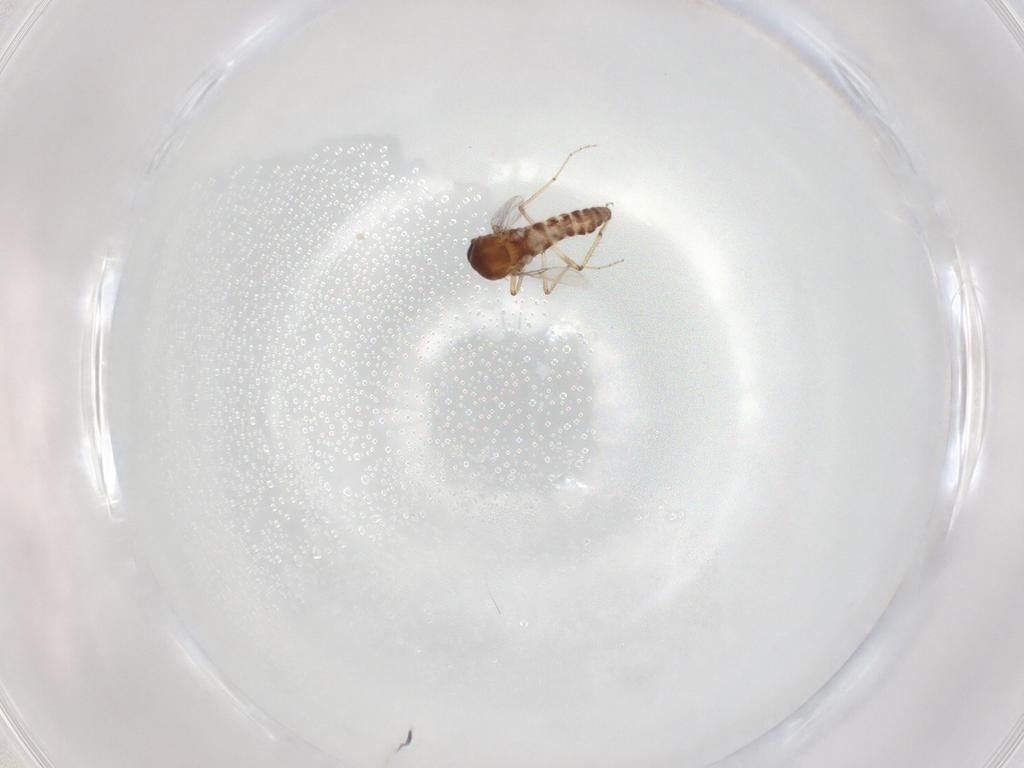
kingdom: Animalia
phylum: Arthropoda
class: Insecta
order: Diptera
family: Ceratopogonidae
